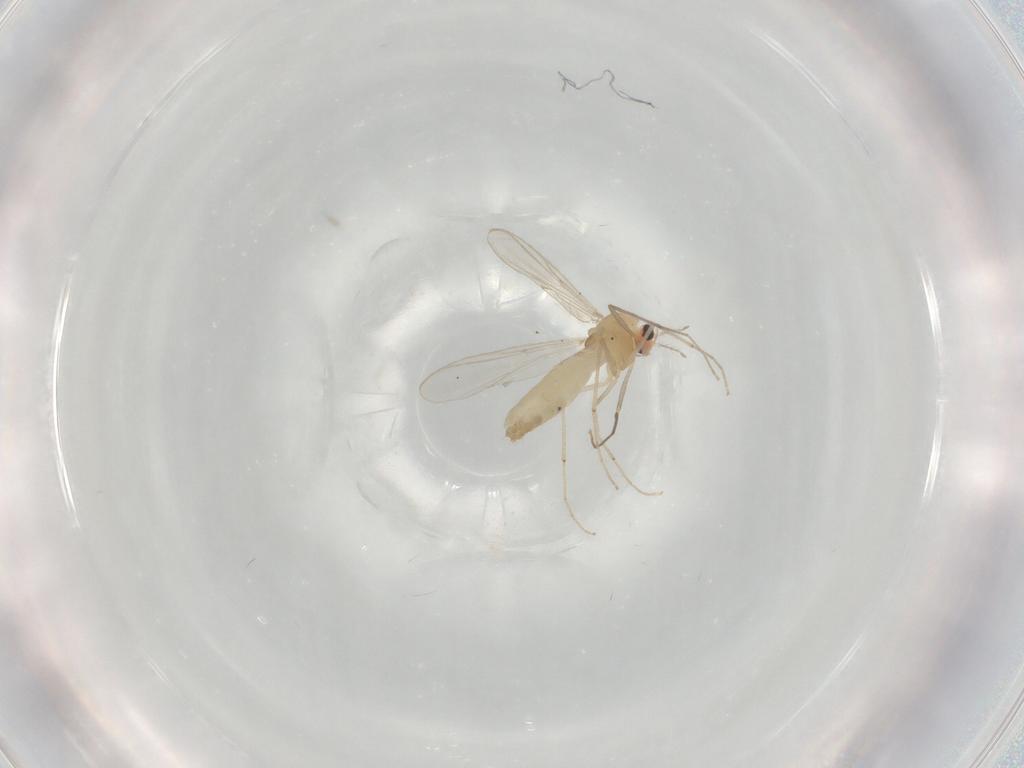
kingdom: Animalia
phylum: Arthropoda
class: Insecta
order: Diptera
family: Chironomidae
